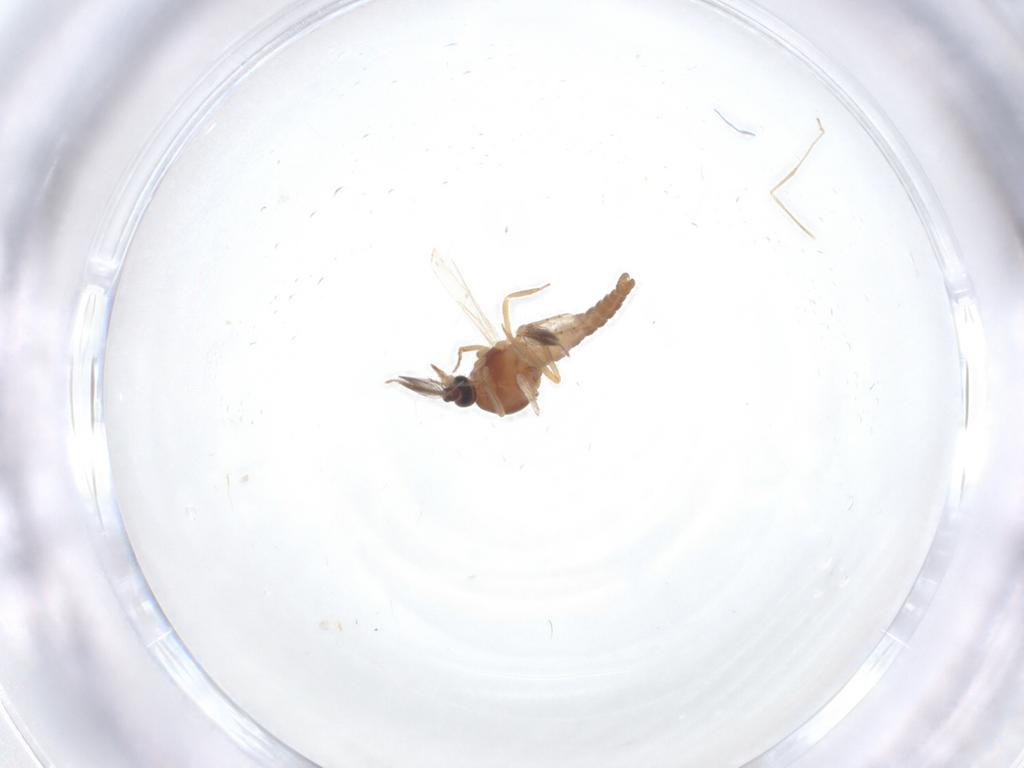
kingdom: Animalia
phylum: Arthropoda
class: Insecta
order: Diptera
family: Ceratopogonidae
